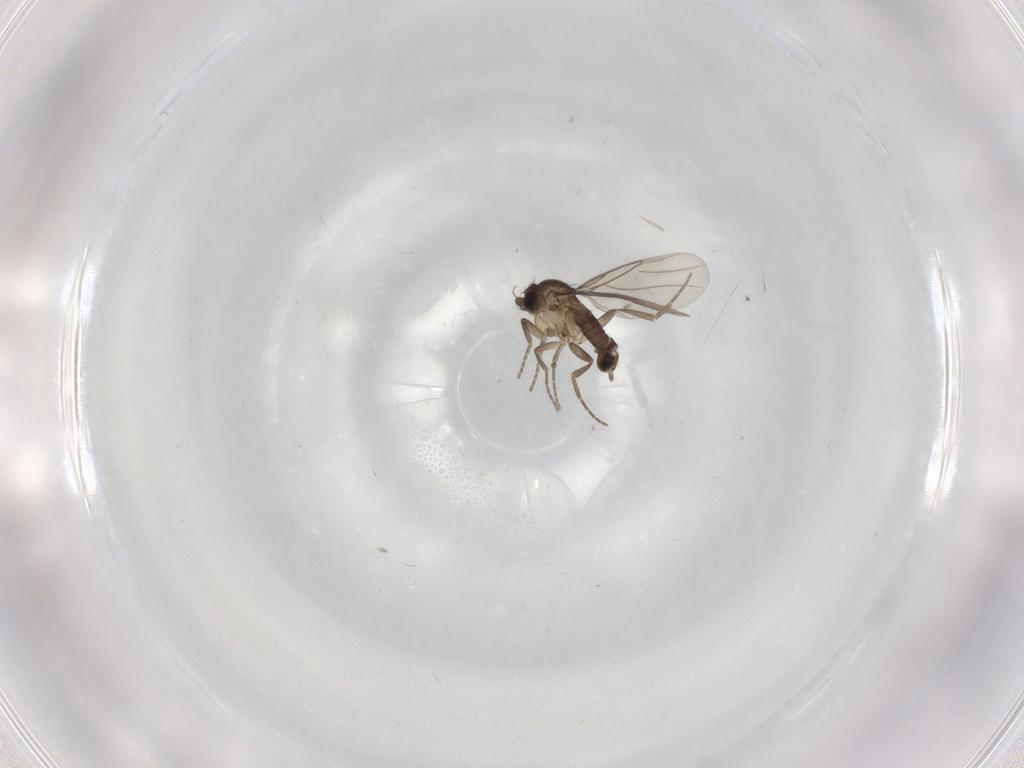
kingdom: Animalia
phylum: Arthropoda
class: Insecta
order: Diptera
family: Phoridae
